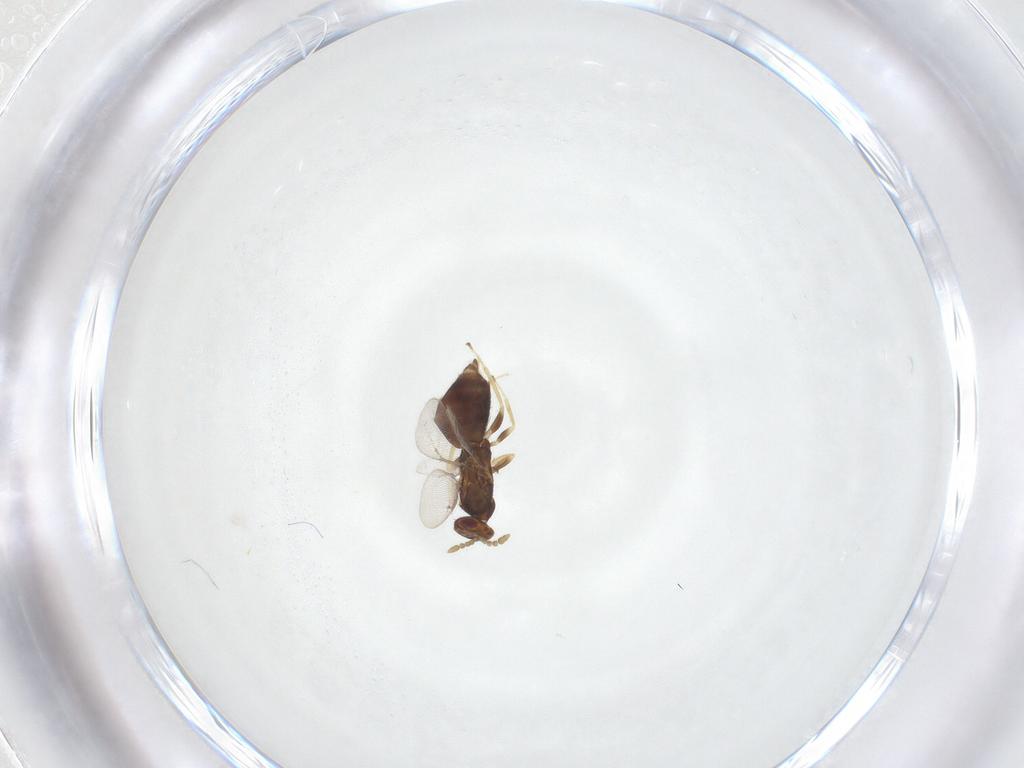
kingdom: Animalia
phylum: Arthropoda
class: Insecta
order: Hymenoptera
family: Eulophidae
